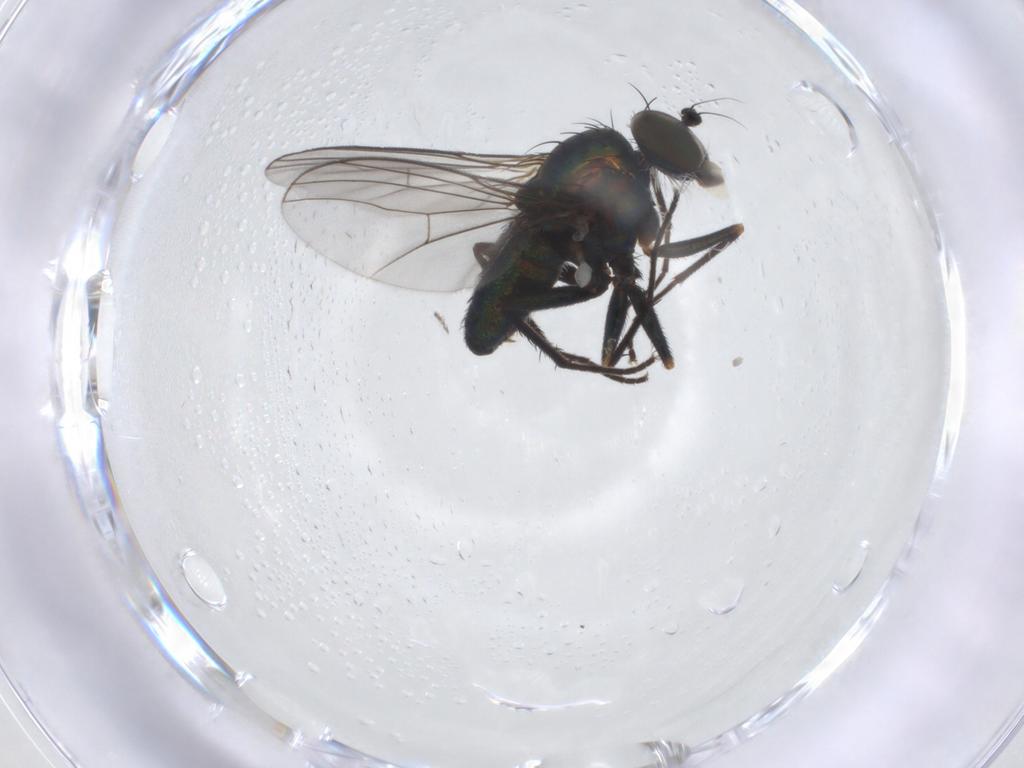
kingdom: Animalia
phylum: Arthropoda
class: Insecta
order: Diptera
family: Dolichopodidae
